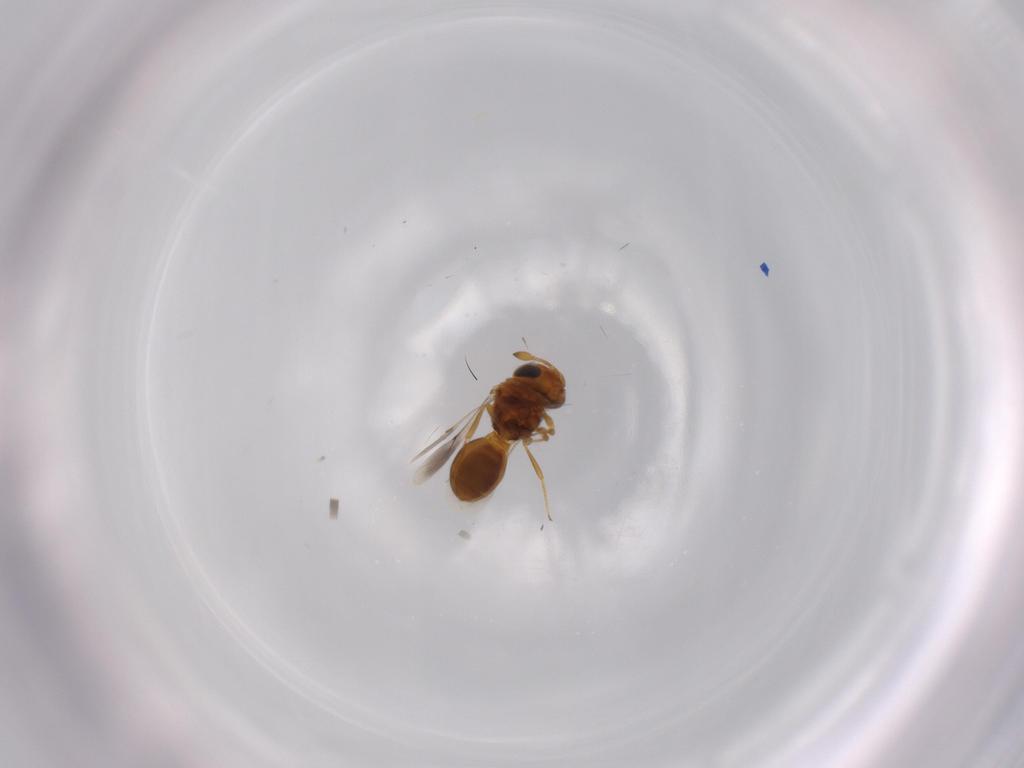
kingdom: Animalia
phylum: Arthropoda
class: Insecta
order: Hymenoptera
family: Scelionidae
